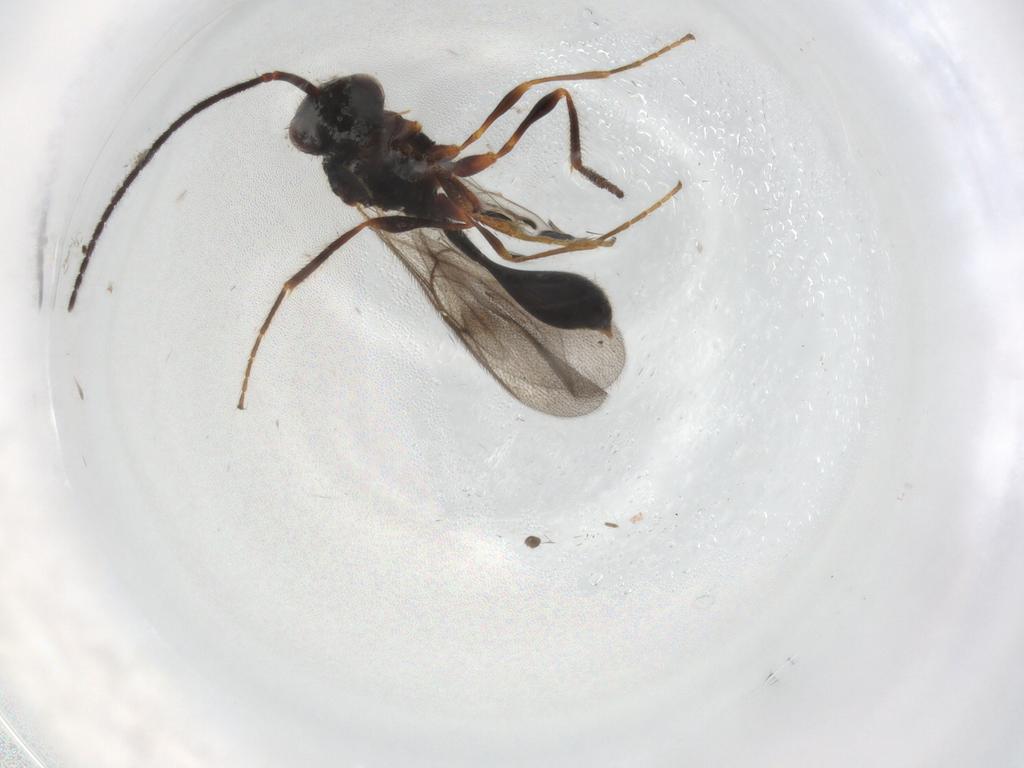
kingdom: Animalia
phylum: Arthropoda
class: Insecta
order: Hymenoptera
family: Diapriidae
